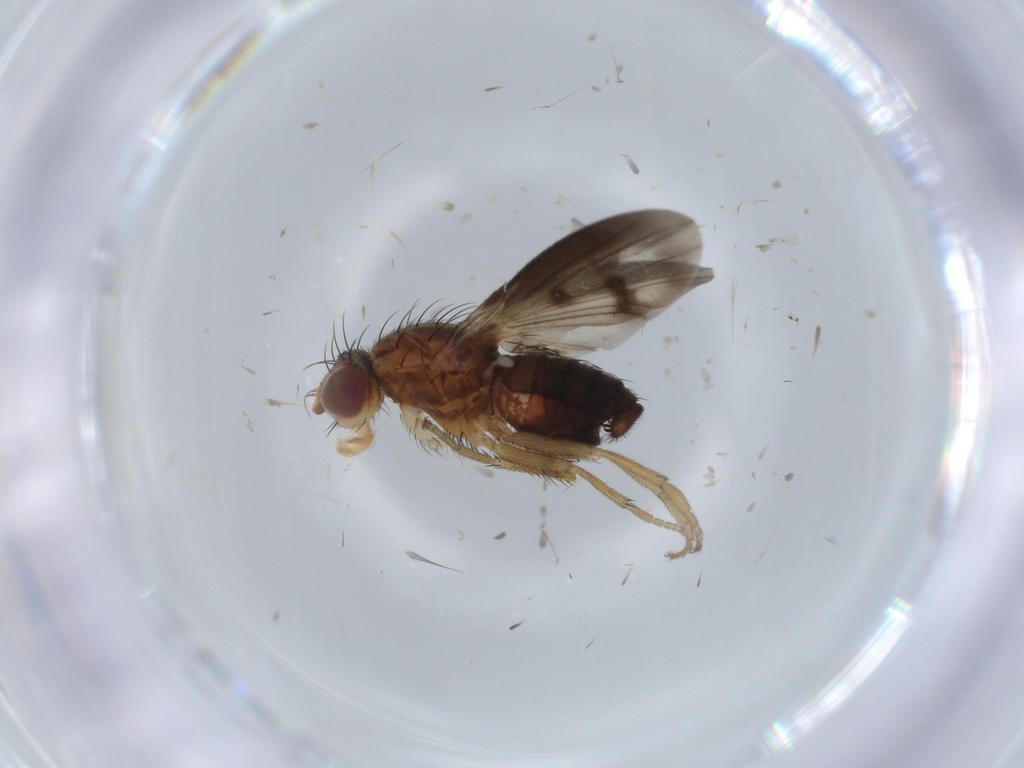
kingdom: Animalia
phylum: Arthropoda
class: Insecta
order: Diptera
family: Heleomyzidae
